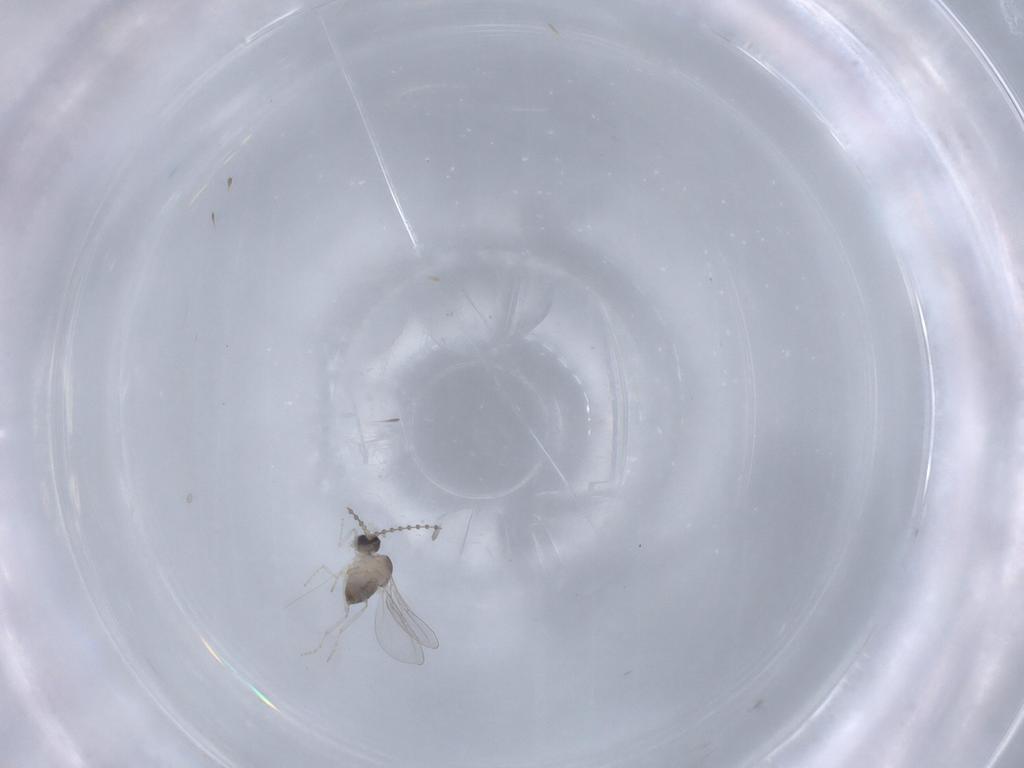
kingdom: Animalia
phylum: Arthropoda
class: Insecta
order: Diptera
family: Cecidomyiidae
